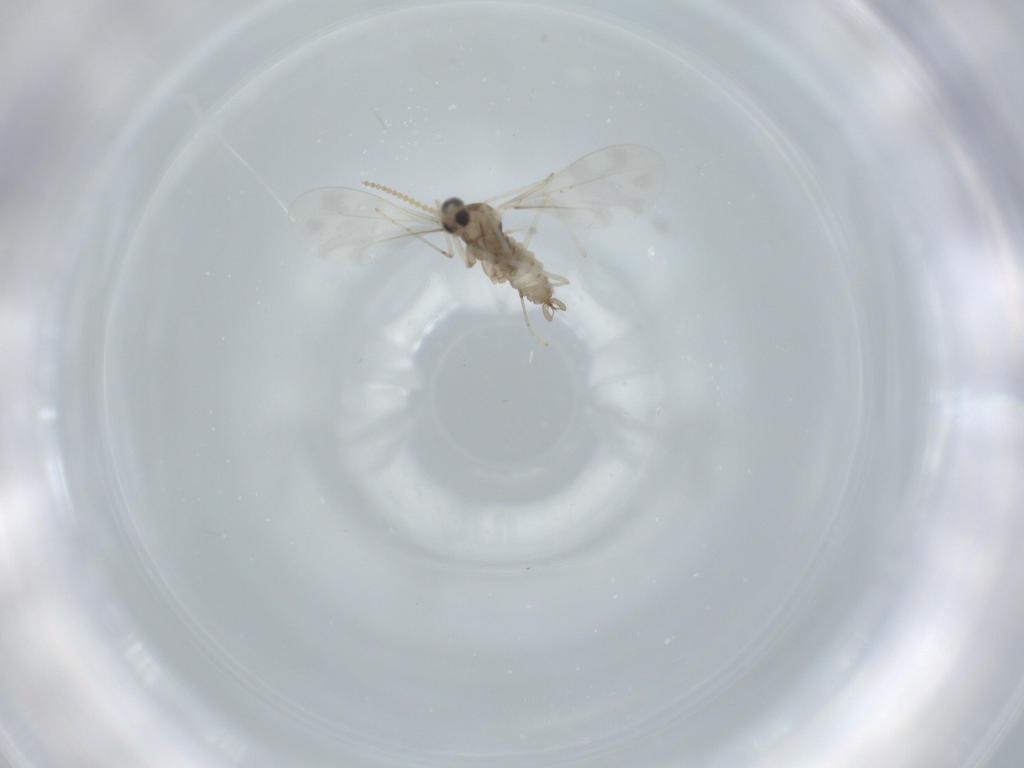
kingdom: Animalia
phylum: Arthropoda
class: Insecta
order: Diptera
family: Cecidomyiidae
